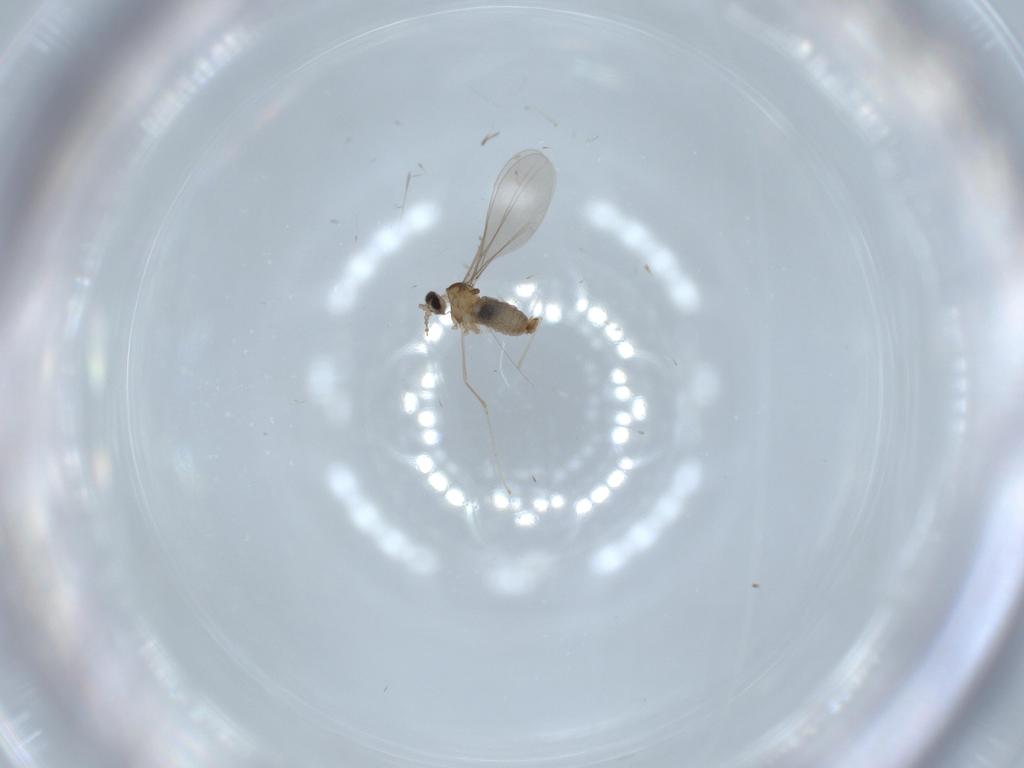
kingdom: Animalia
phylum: Arthropoda
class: Insecta
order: Diptera
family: Cecidomyiidae
